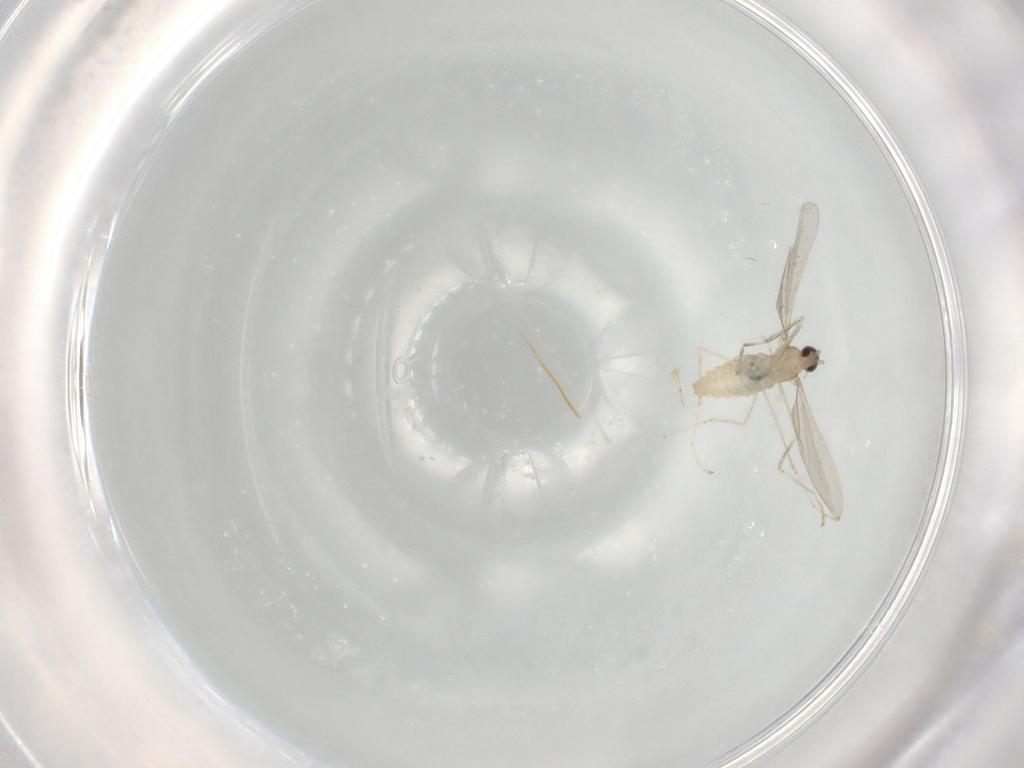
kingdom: Animalia
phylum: Arthropoda
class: Insecta
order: Diptera
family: Cecidomyiidae
